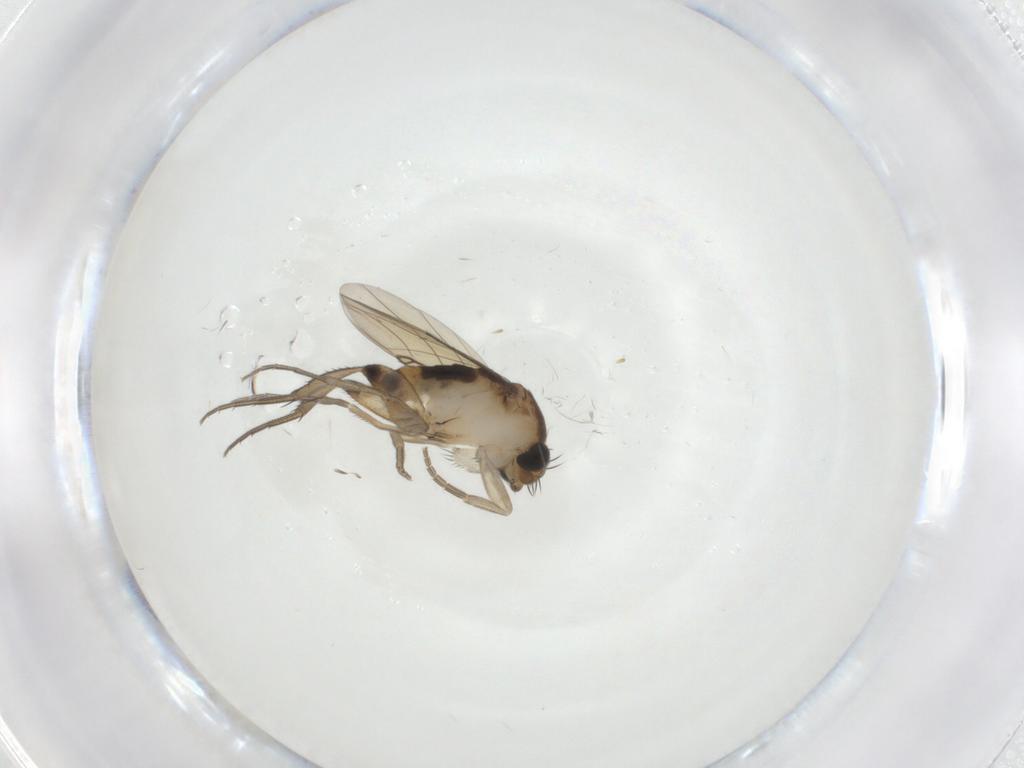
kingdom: Animalia
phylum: Arthropoda
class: Insecta
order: Diptera
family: Phoridae
